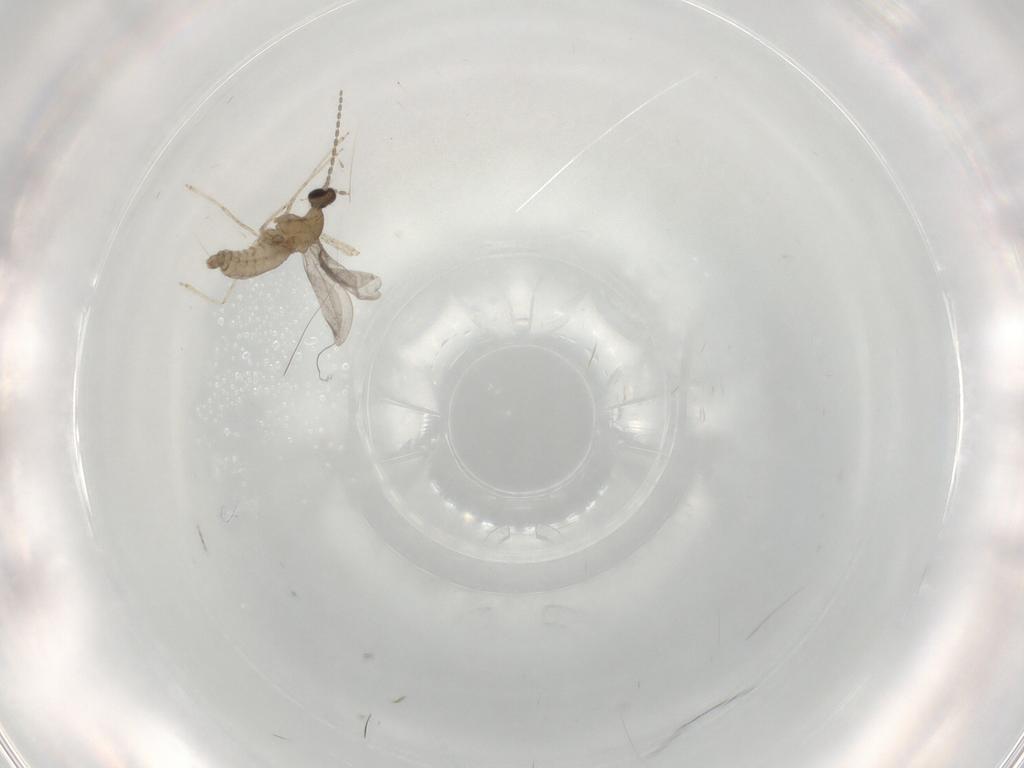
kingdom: Animalia
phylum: Arthropoda
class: Insecta
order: Diptera
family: Cecidomyiidae
